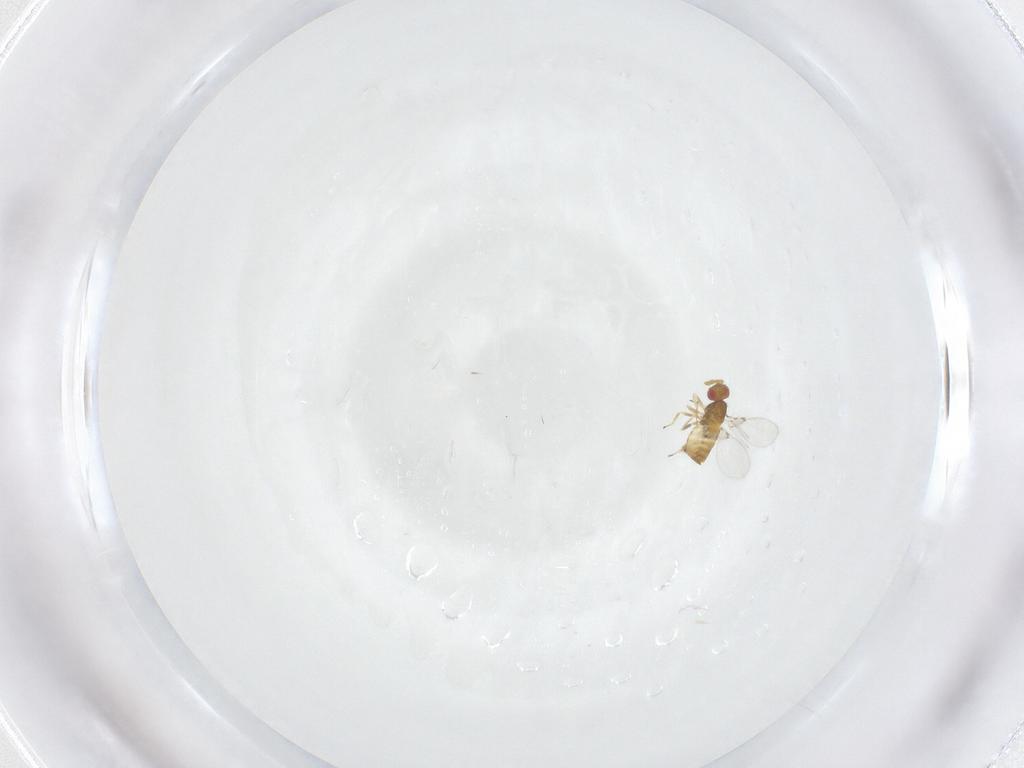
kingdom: Animalia
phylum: Arthropoda
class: Insecta
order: Hymenoptera
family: Trichogrammatidae
